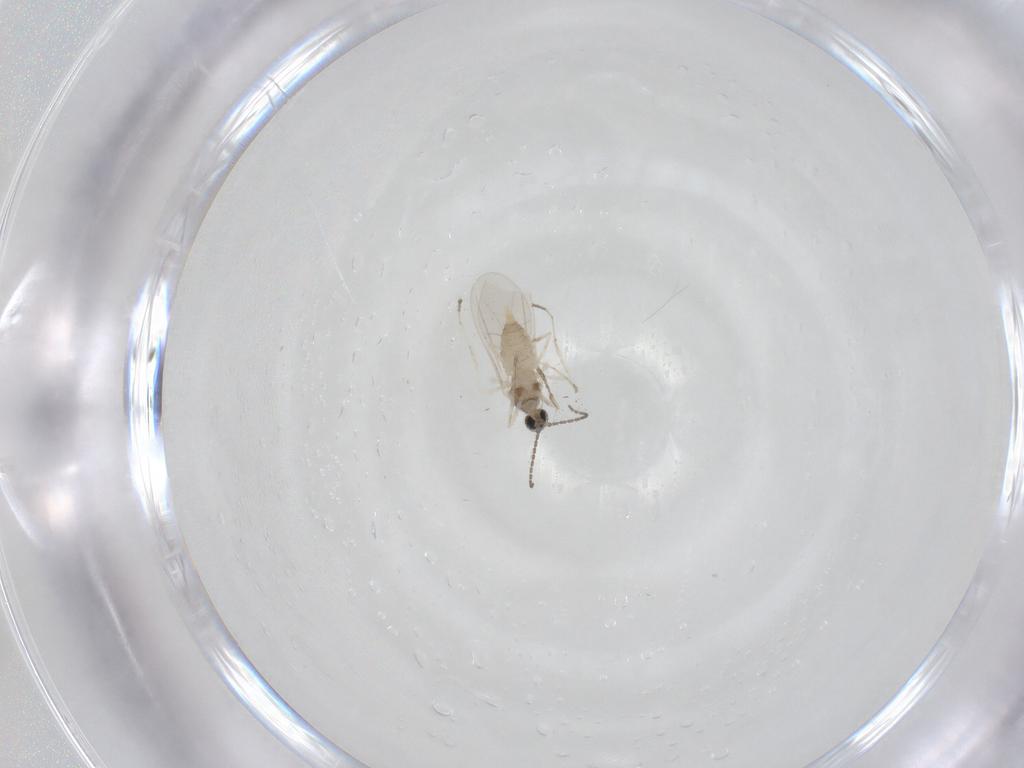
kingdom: Animalia
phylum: Arthropoda
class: Insecta
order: Diptera
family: Cecidomyiidae
